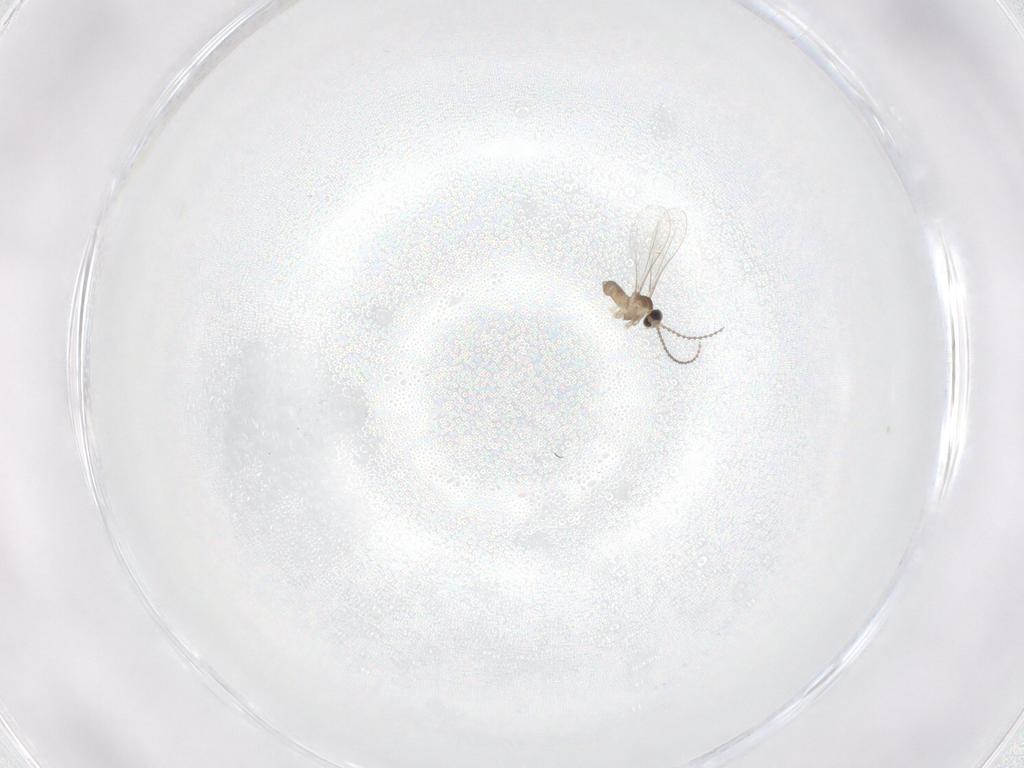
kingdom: Animalia
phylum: Arthropoda
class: Insecta
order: Diptera
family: Cecidomyiidae
